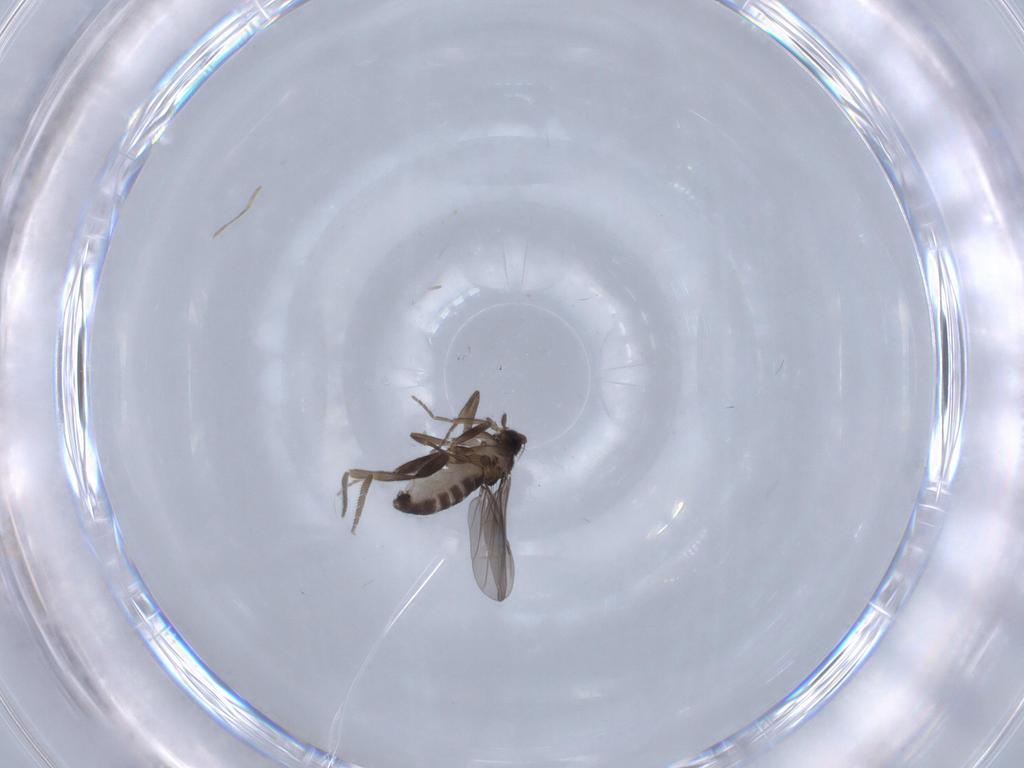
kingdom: Animalia
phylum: Arthropoda
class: Insecta
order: Diptera
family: Phoridae
